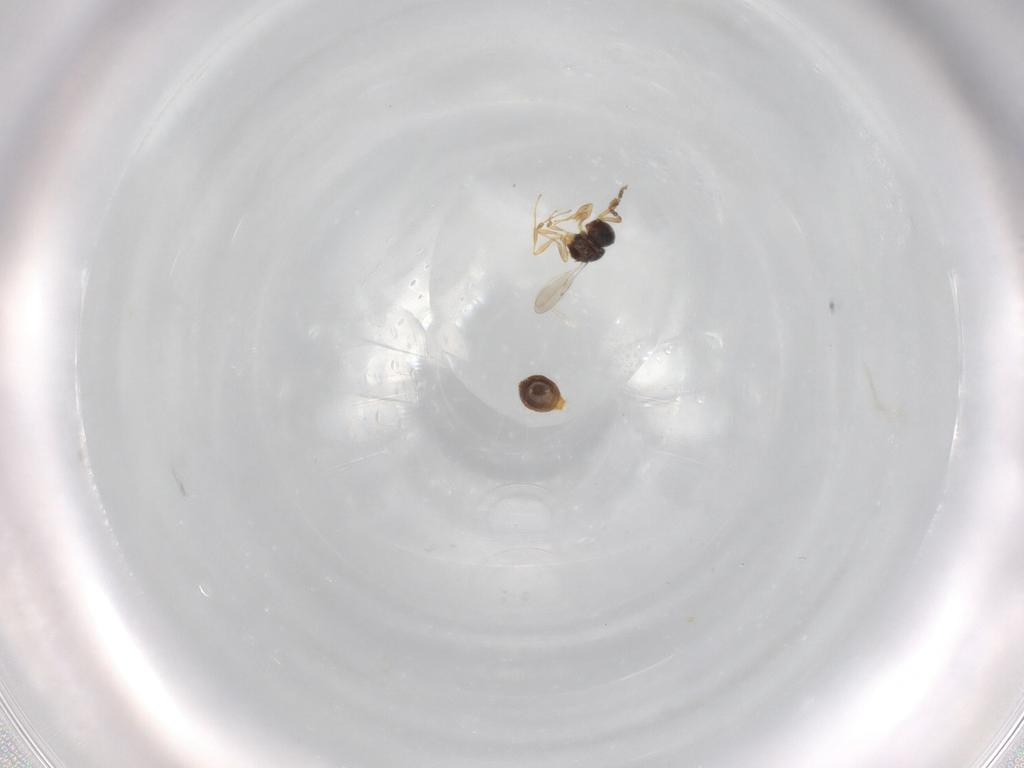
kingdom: Animalia
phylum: Arthropoda
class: Insecta
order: Hymenoptera
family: Scelionidae
